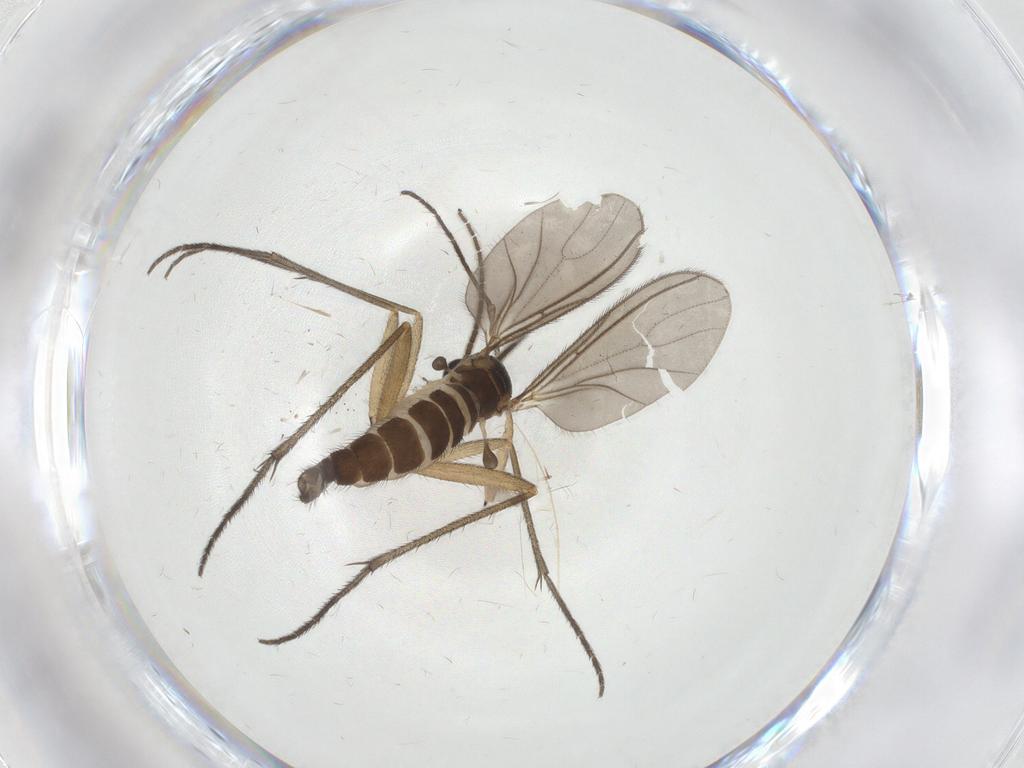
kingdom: Animalia
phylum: Arthropoda
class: Insecta
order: Diptera
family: Sciaridae
